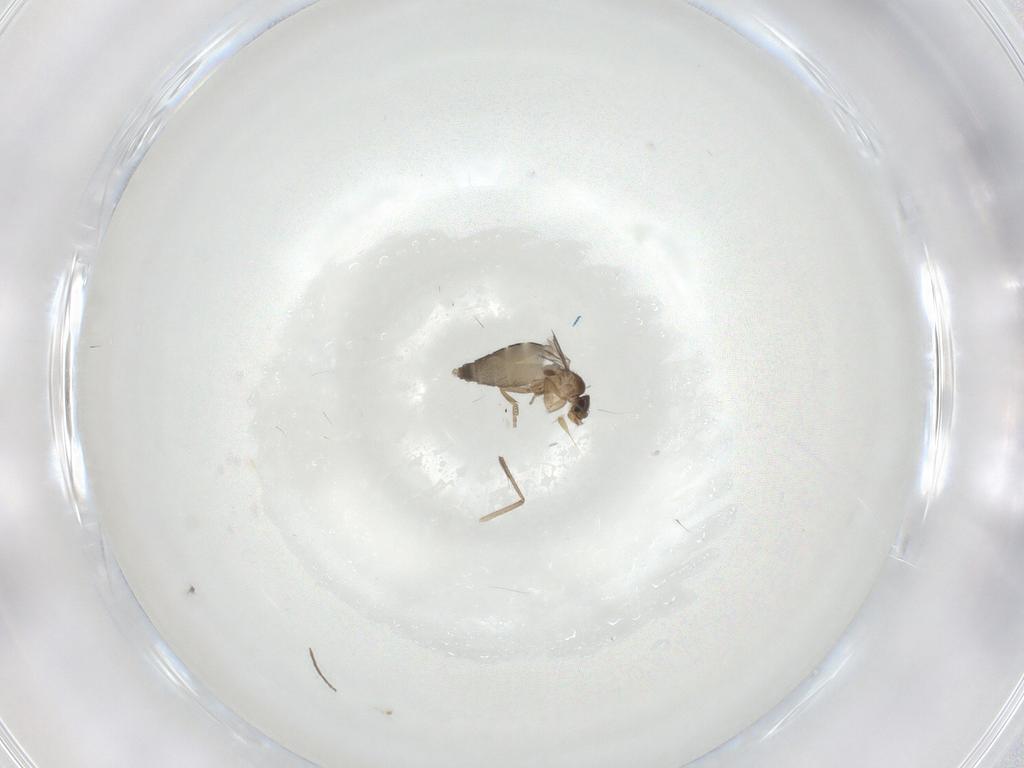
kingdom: Animalia
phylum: Arthropoda
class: Insecta
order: Diptera
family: Chironomidae
